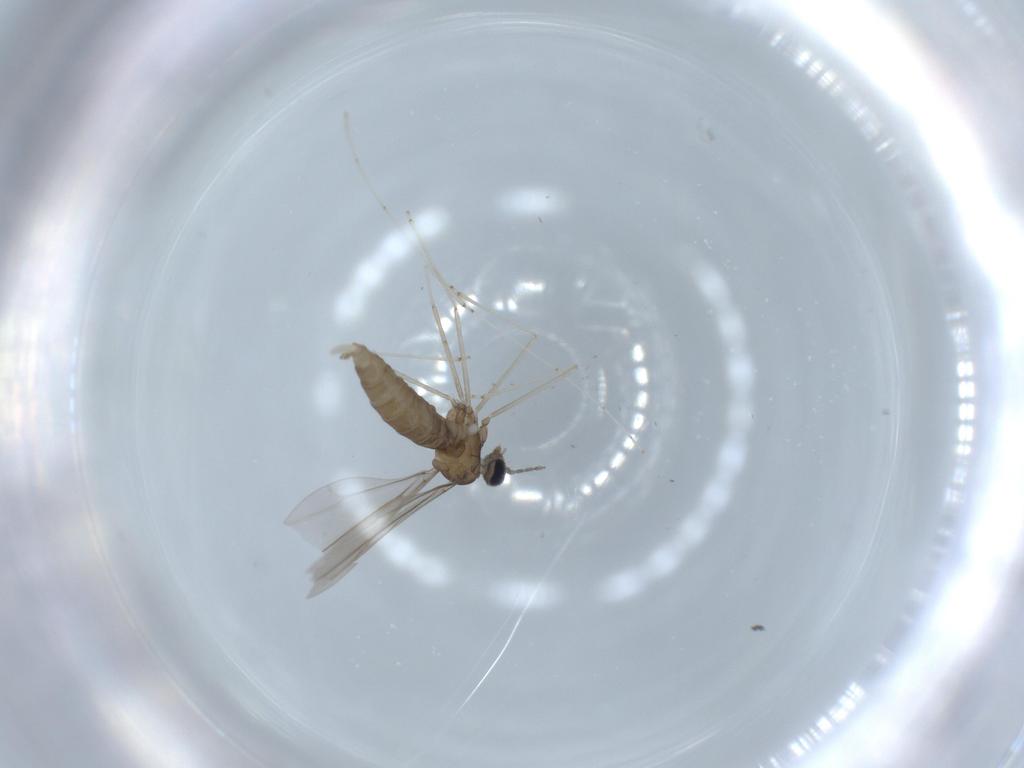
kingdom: Animalia
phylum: Arthropoda
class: Insecta
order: Diptera
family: Cecidomyiidae
